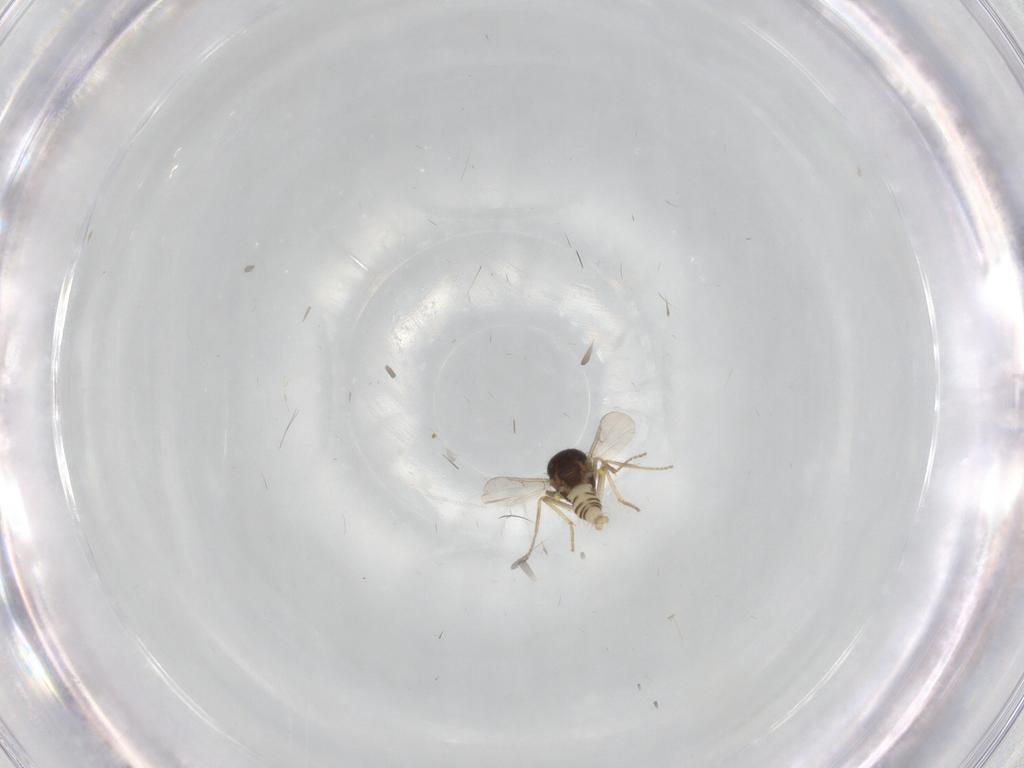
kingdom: Animalia
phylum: Arthropoda
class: Insecta
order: Diptera
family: Ceratopogonidae
